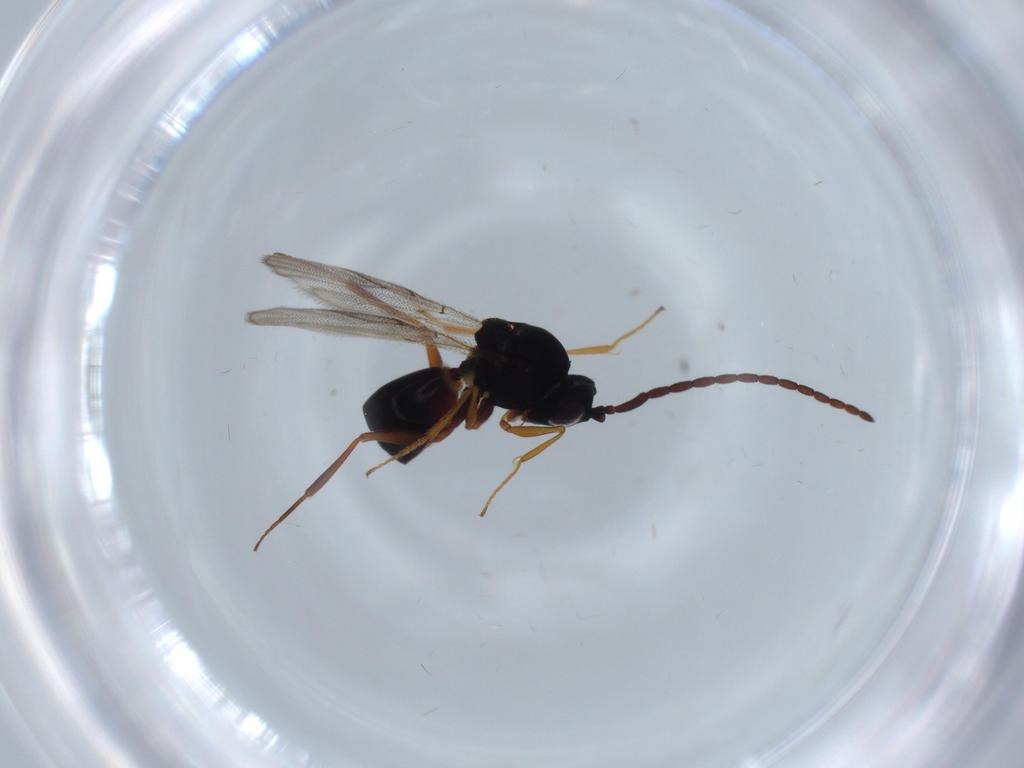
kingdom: Animalia
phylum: Arthropoda
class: Insecta
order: Hymenoptera
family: Figitidae
